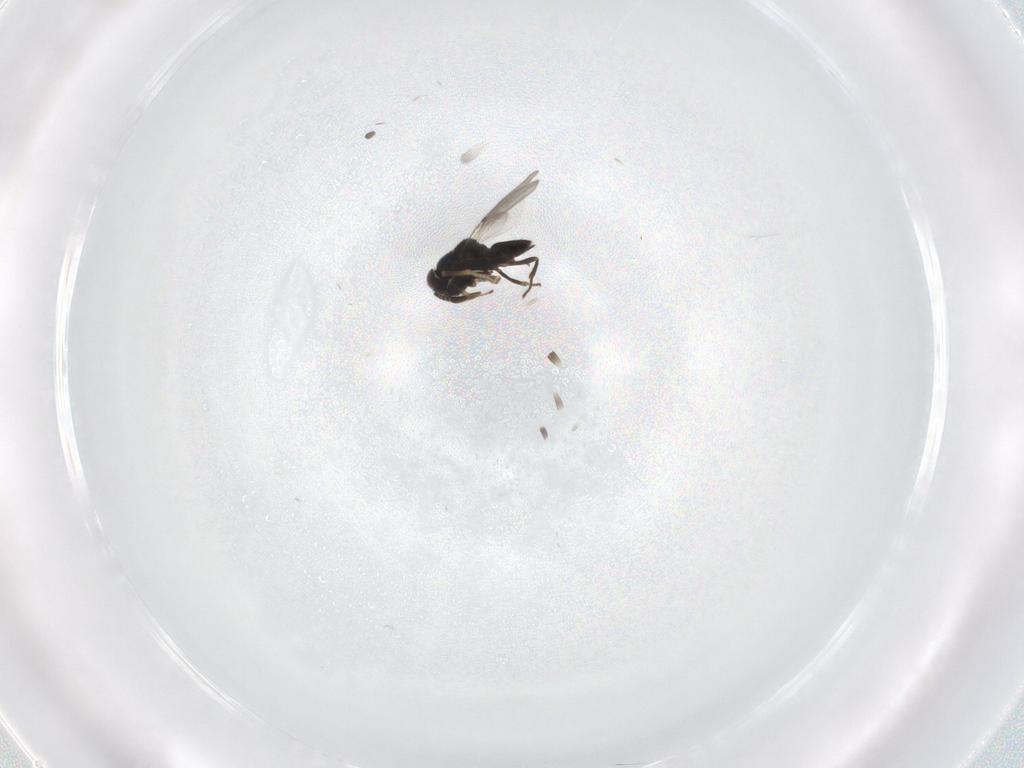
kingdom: Animalia
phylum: Arthropoda
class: Insecta
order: Hymenoptera
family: Encyrtidae
